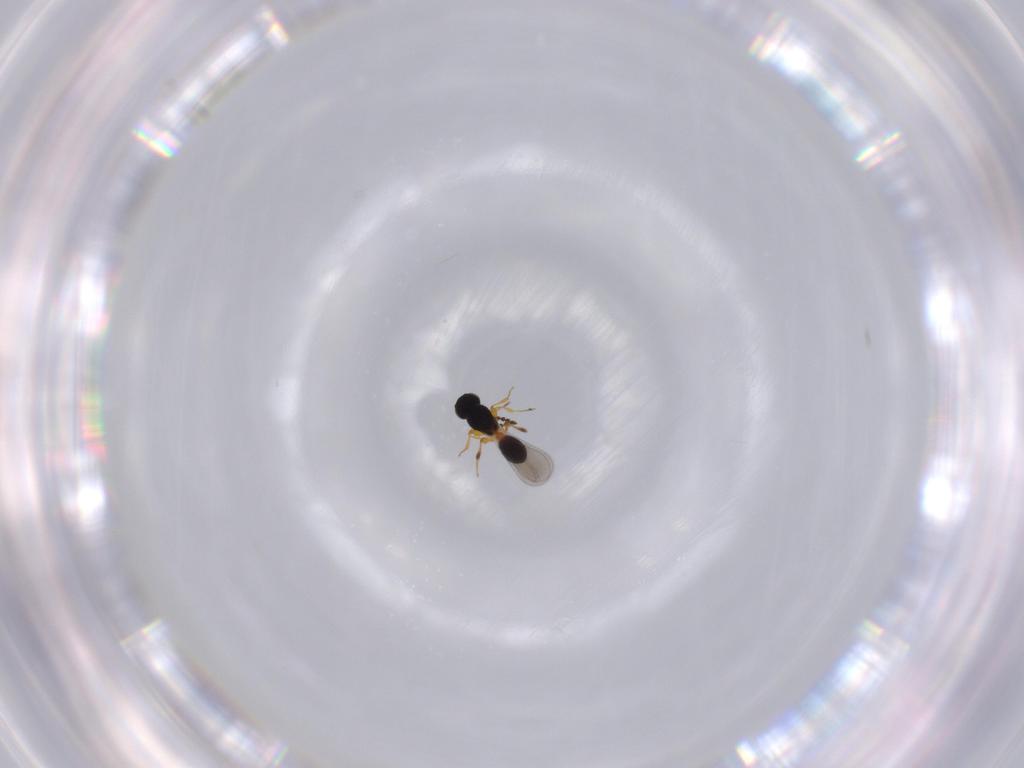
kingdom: Animalia
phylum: Arthropoda
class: Insecta
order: Hymenoptera
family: Platygastridae
